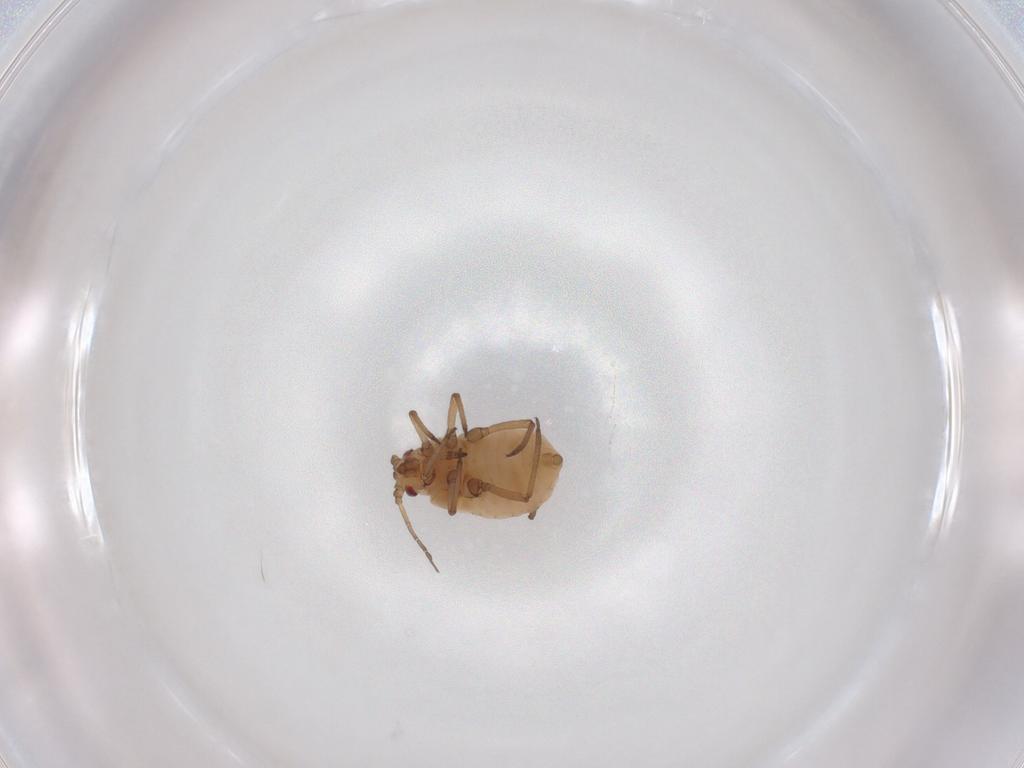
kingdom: Animalia
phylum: Arthropoda
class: Insecta
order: Hemiptera
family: Aphididae
